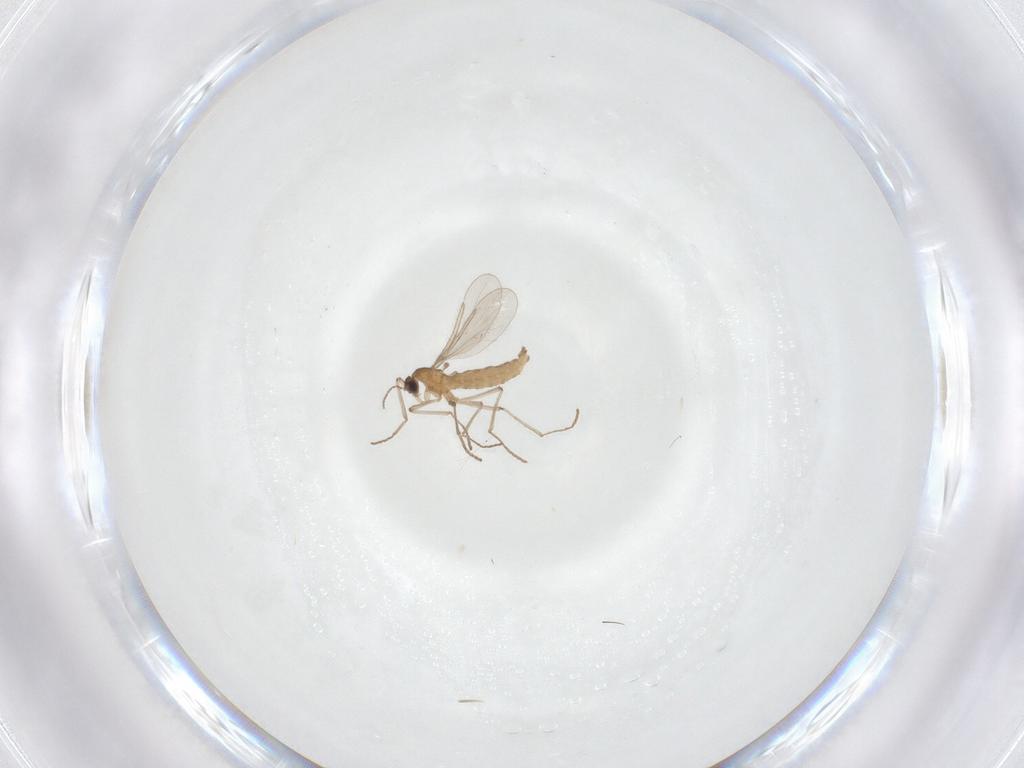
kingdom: Animalia
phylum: Arthropoda
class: Insecta
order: Diptera
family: Cecidomyiidae
